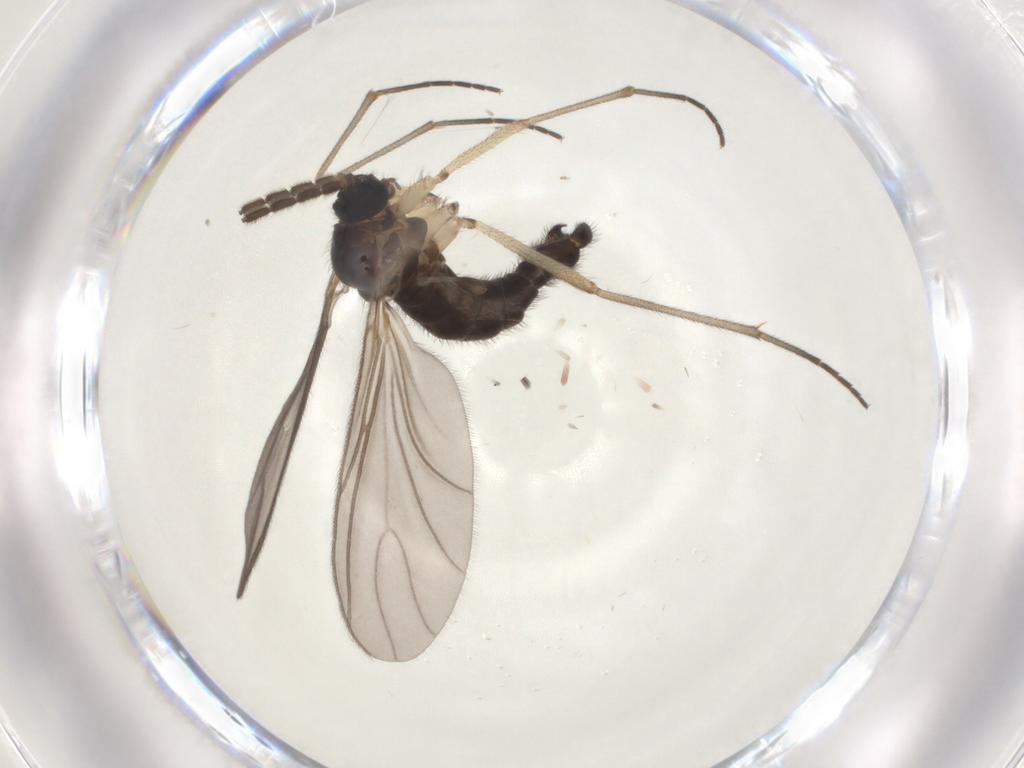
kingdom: Animalia
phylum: Arthropoda
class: Insecta
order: Diptera
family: Sciaridae
